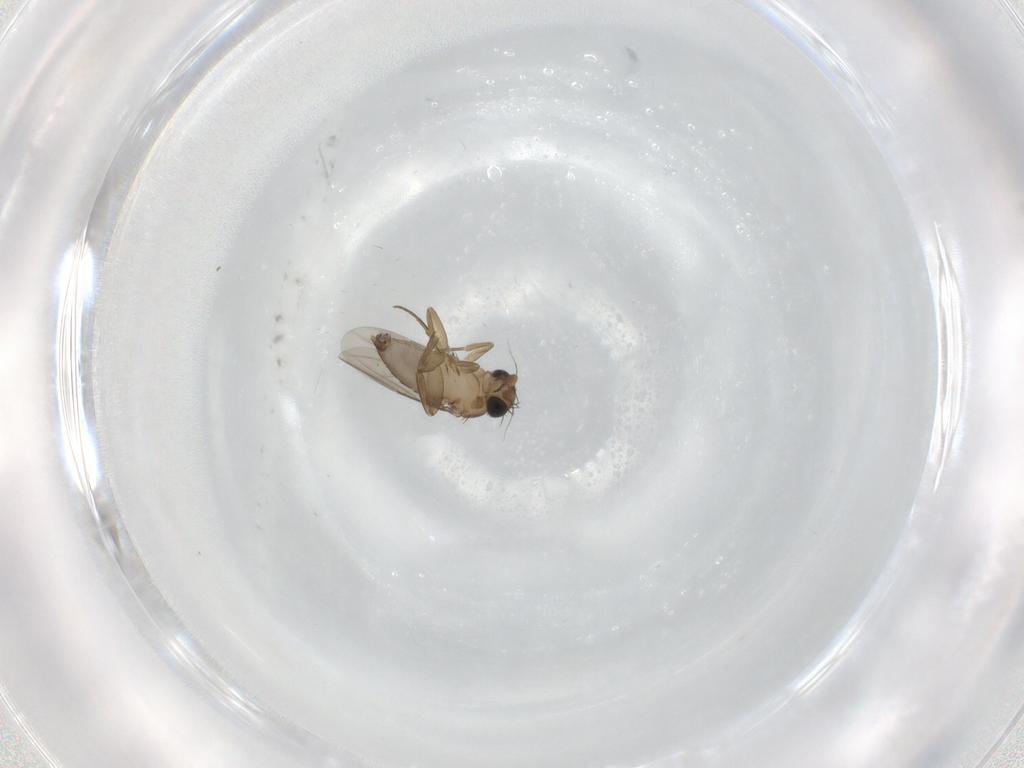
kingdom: Animalia
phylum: Arthropoda
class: Insecta
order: Diptera
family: Phoridae
